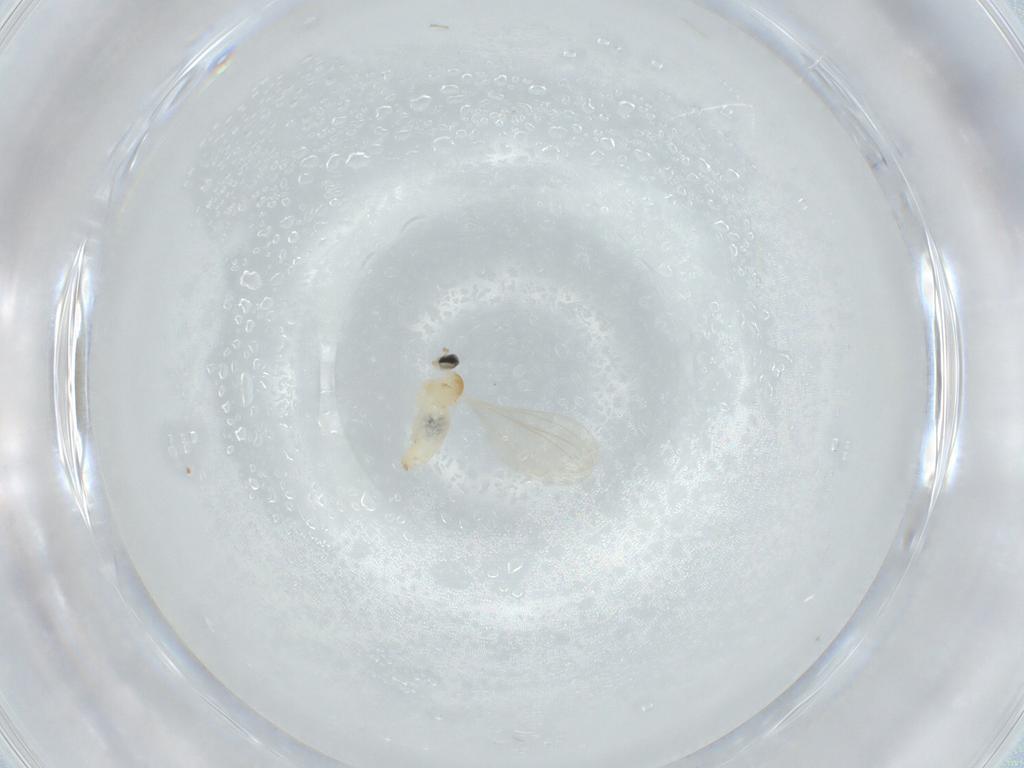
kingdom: Animalia
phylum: Arthropoda
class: Insecta
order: Diptera
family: Cecidomyiidae
